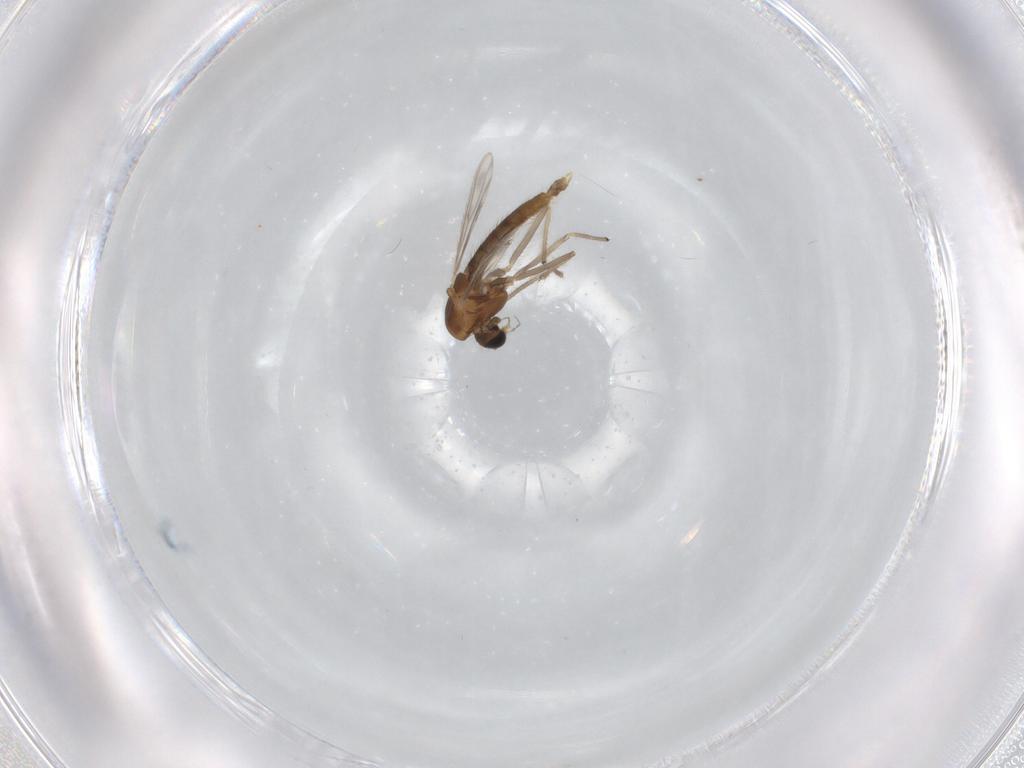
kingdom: Animalia
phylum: Arthropoda
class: Insecta
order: Diptera
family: Chironomidae
